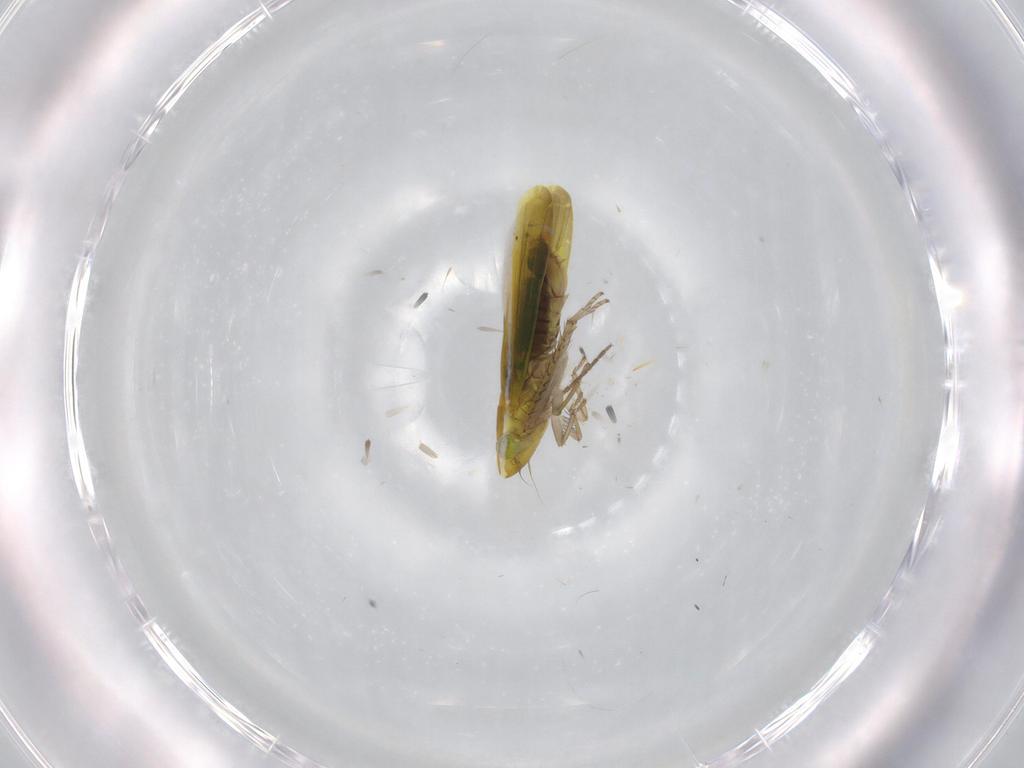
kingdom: Animalia
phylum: Arthropoda
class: Insecta
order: Hemiptera
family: Cicadellidae
